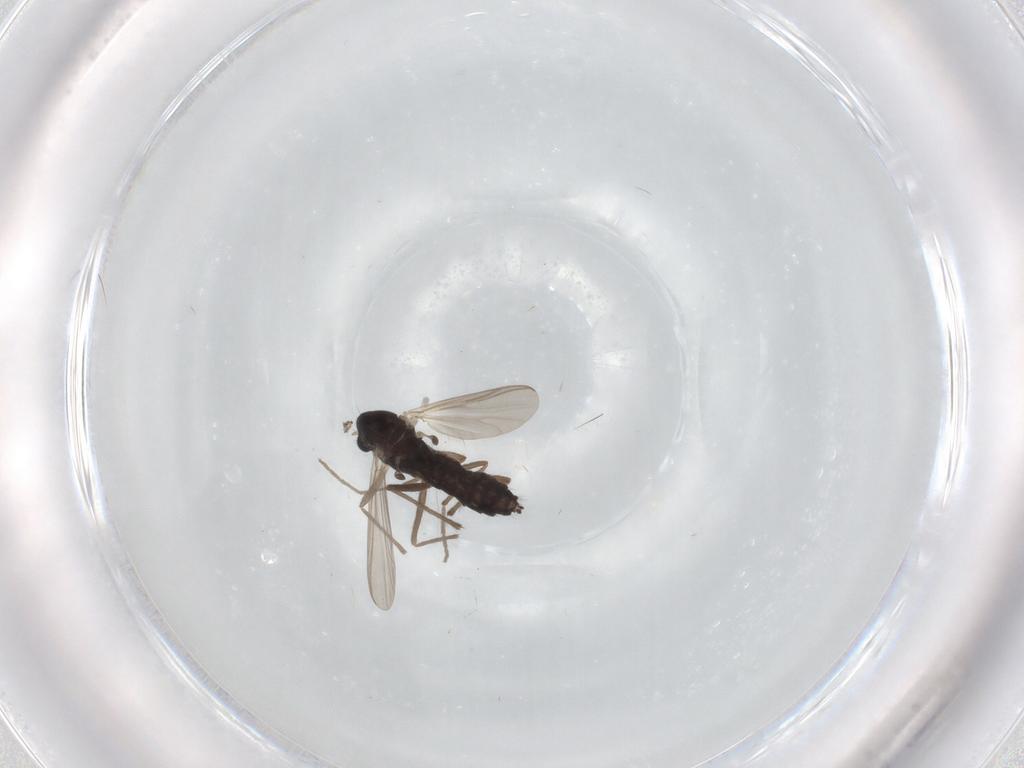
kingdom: Animalia
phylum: Arthropoda
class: Insecta
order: Diptera
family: Chironomidae
